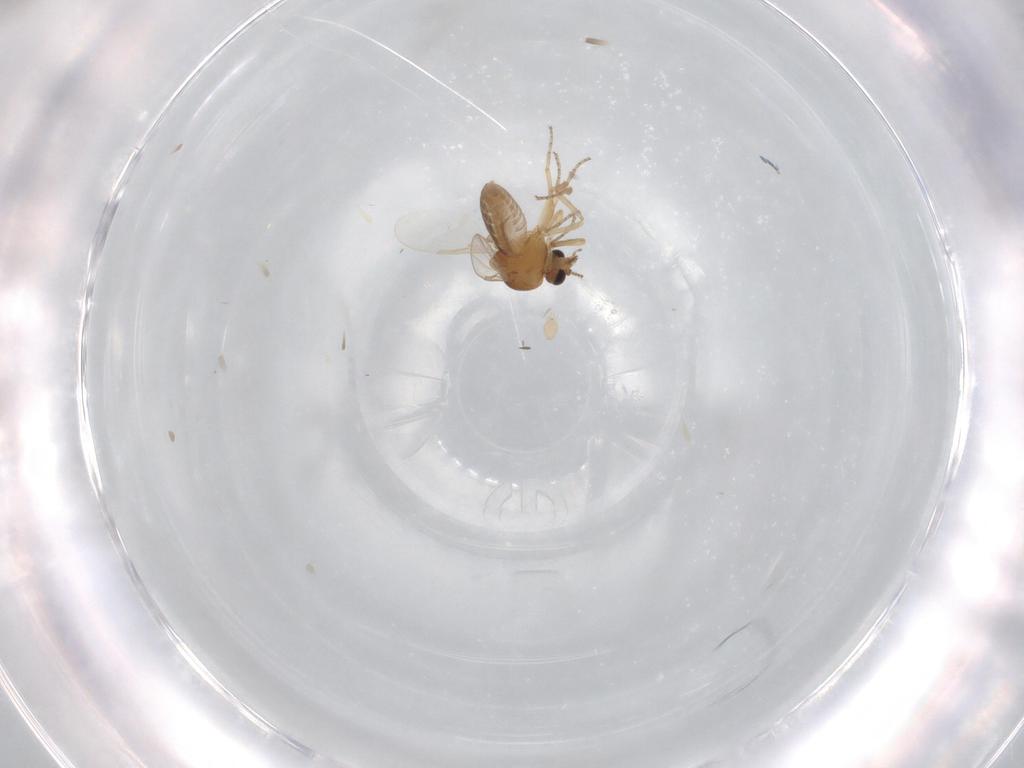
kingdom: Animalia
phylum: Arthropoda
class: Insecta
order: Diptera
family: Ceratopogonidae
